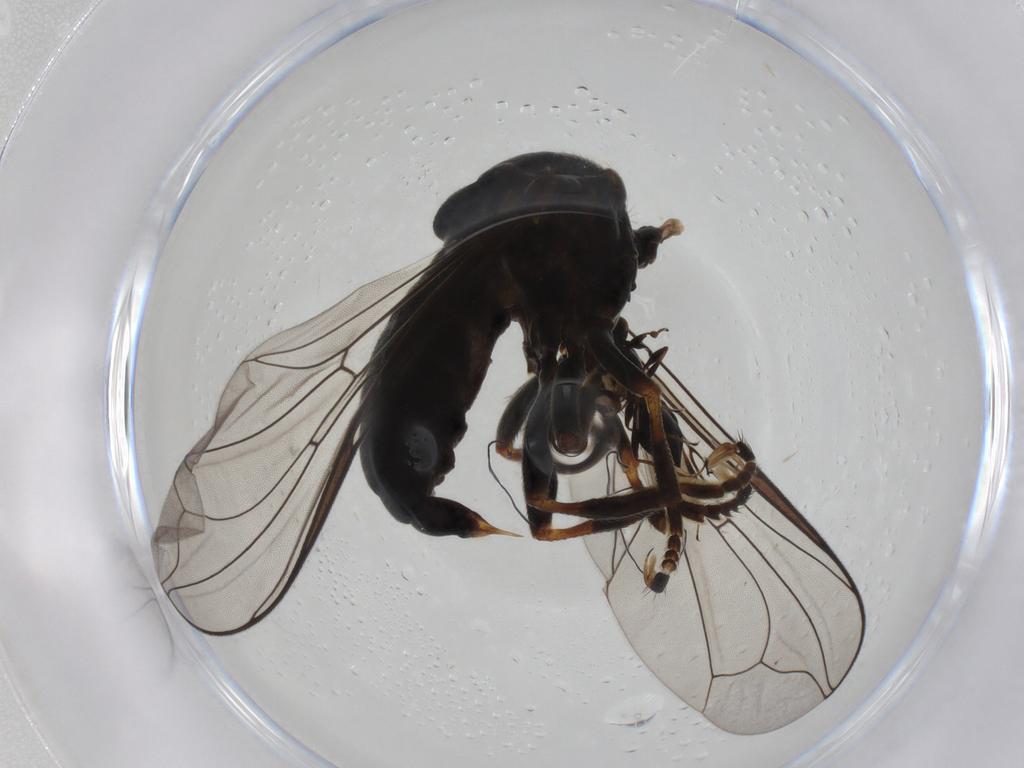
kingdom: Animalia
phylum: Arthropoda
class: Insecta
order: Diptera
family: Pipunculidae
